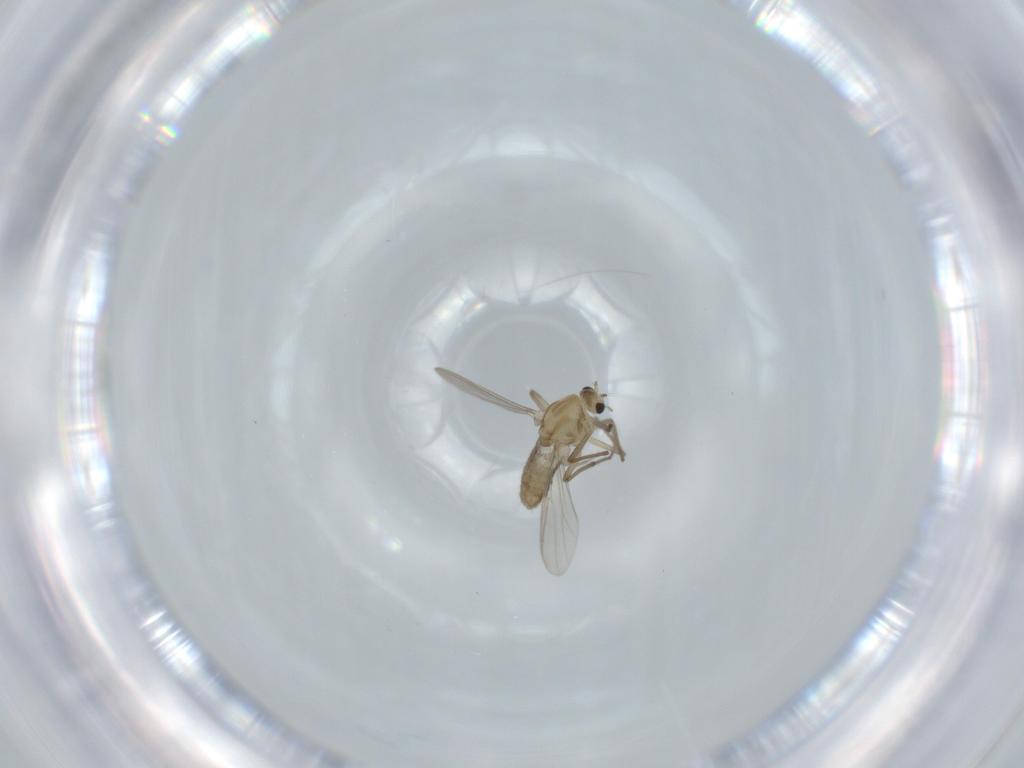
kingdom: Animalia
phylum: Arthropoda
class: Insecta
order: Diptera
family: Chironomidae
